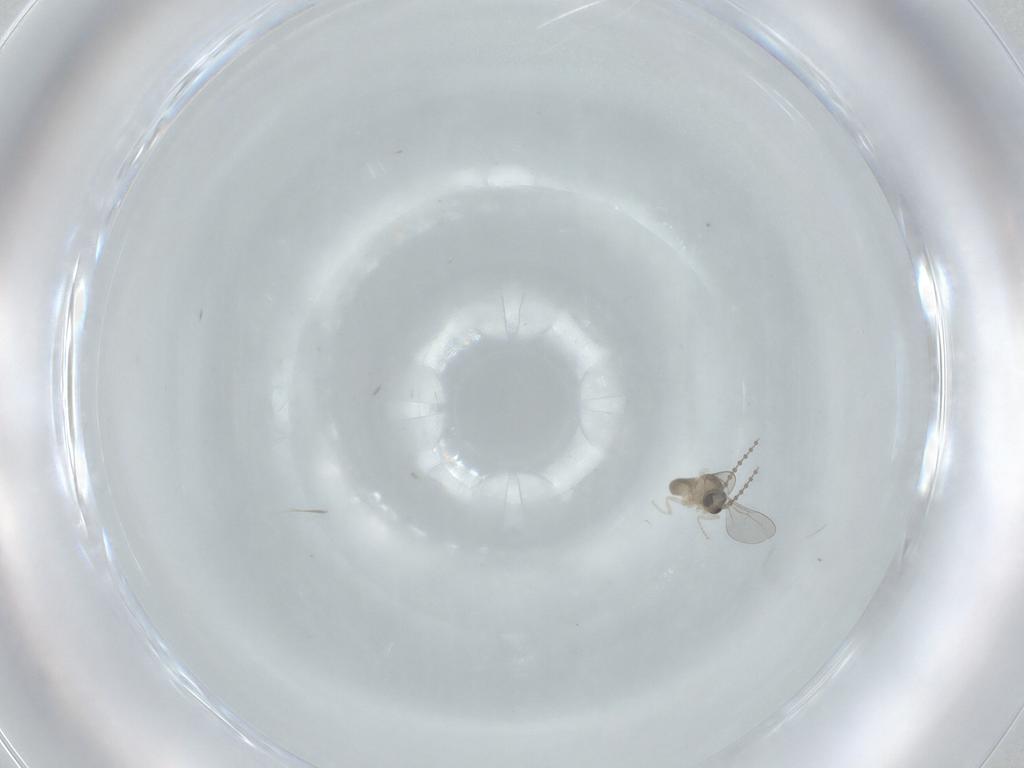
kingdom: Animalia
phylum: Arthropoda
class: Insecta
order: Diptera
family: Cecidomyiidae
